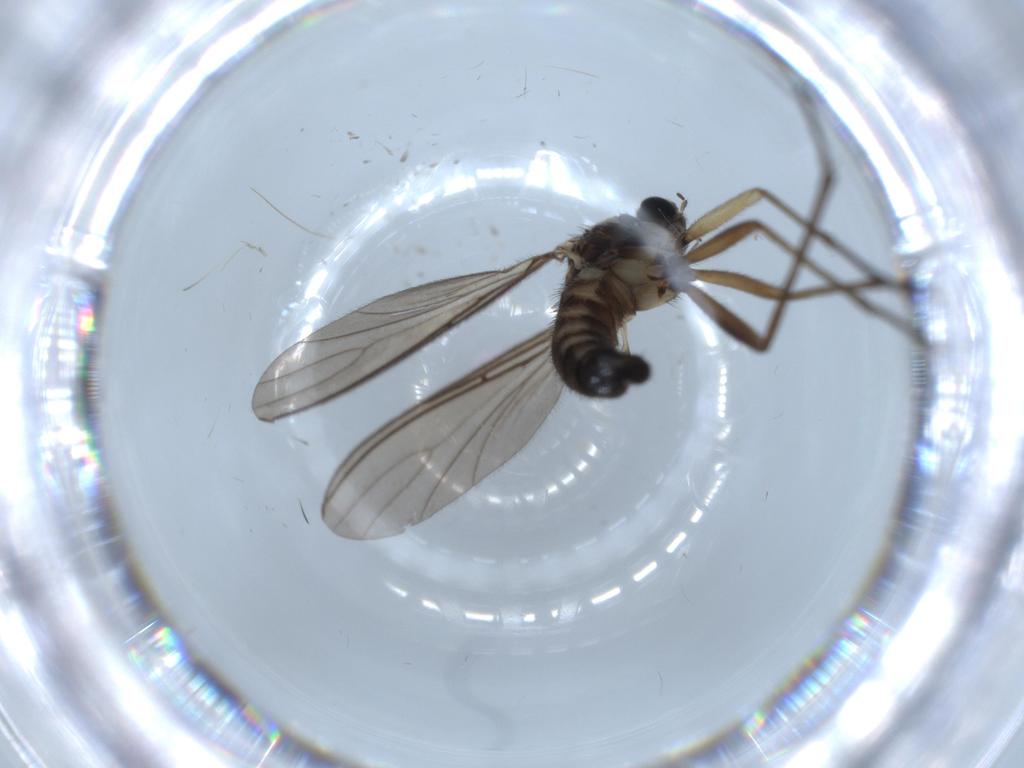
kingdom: Animalia
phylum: Arthropoda
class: Insecta
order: Diptera
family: Sciaridae
